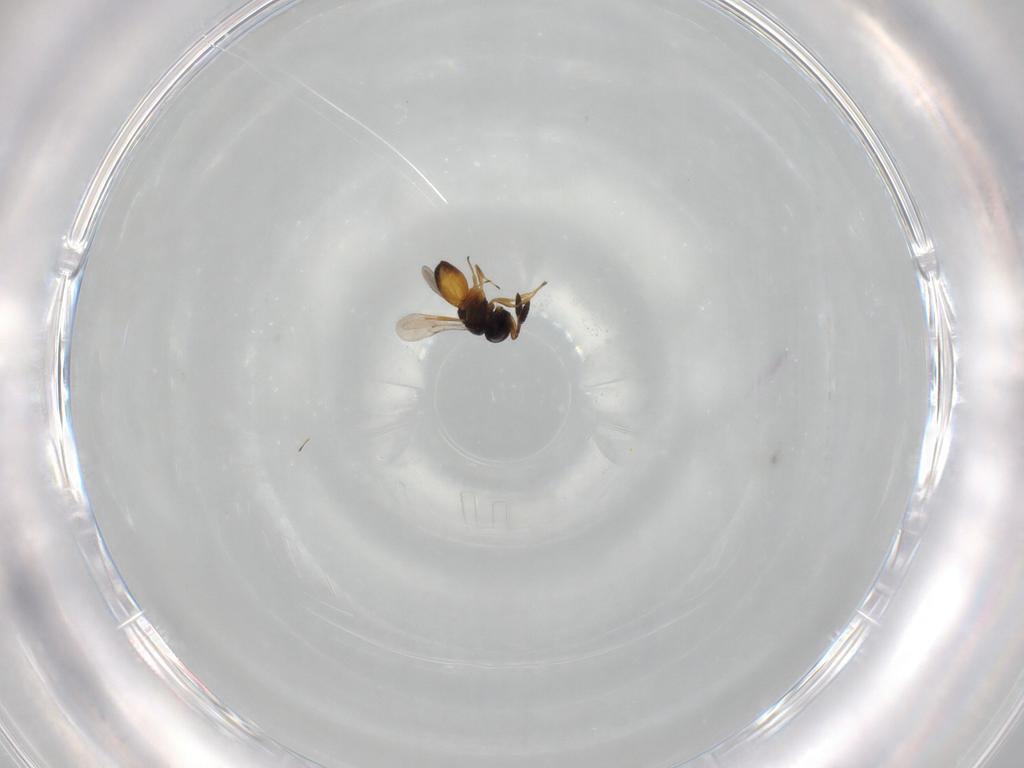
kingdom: Animalia
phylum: Arthropoda
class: Insecta
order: Hymenoptera
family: Scelionidae
